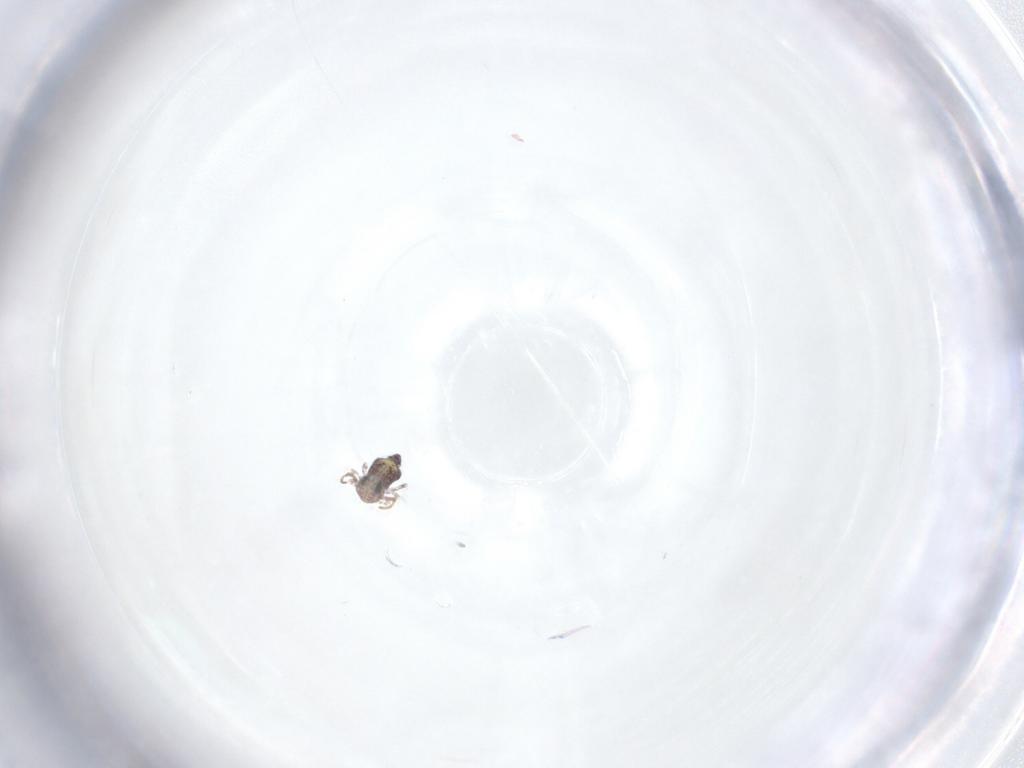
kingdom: Animalia
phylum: Arthropoda
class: Collembola
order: Symphypleona
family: Bourletiellidae
